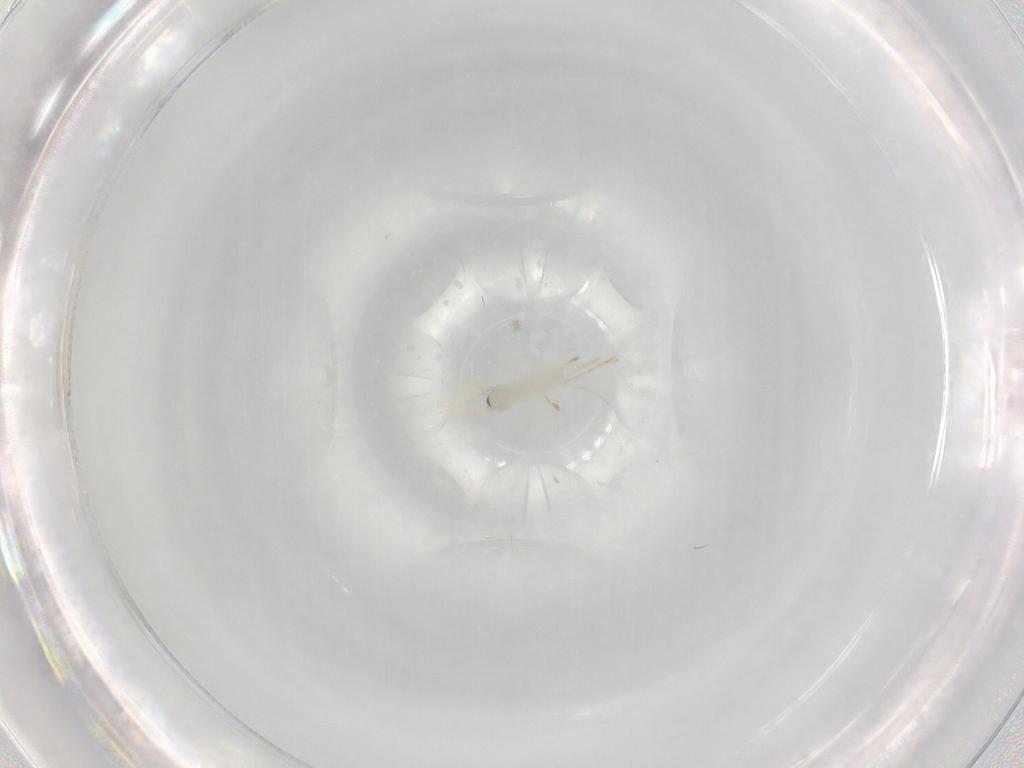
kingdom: Animalia
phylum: Arthropoda
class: Insecta
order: Diptera
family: Cecidomyiidae
